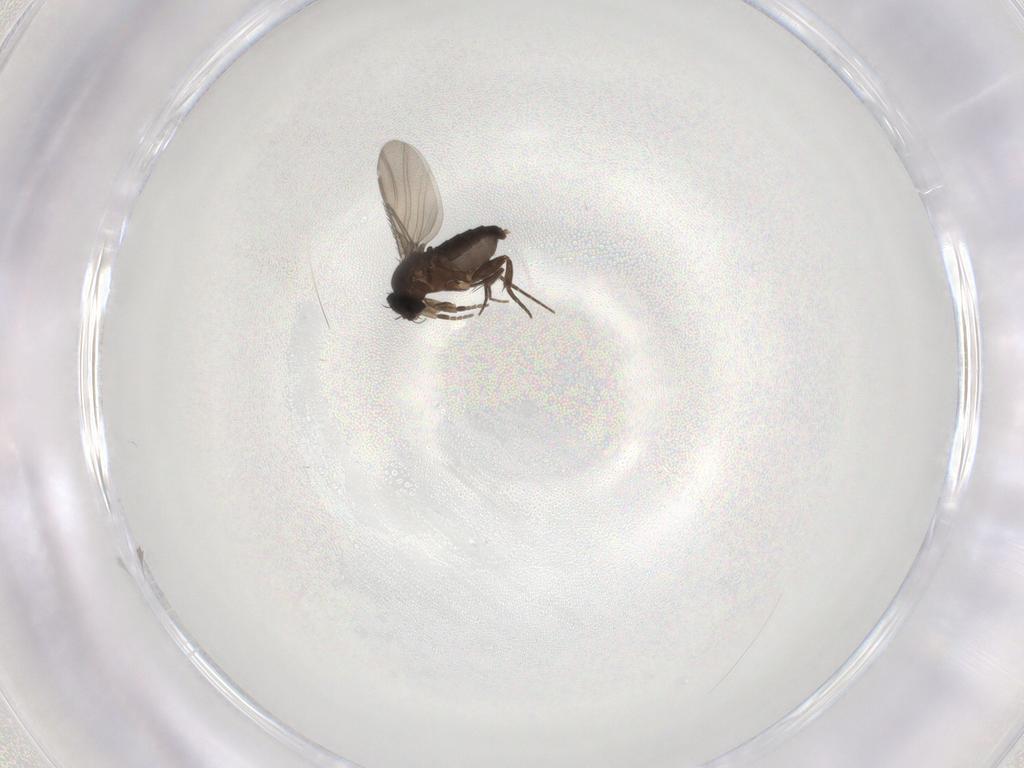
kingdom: Animalia
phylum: Arthropoda
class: Insecta
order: Diptera
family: Phoridae
